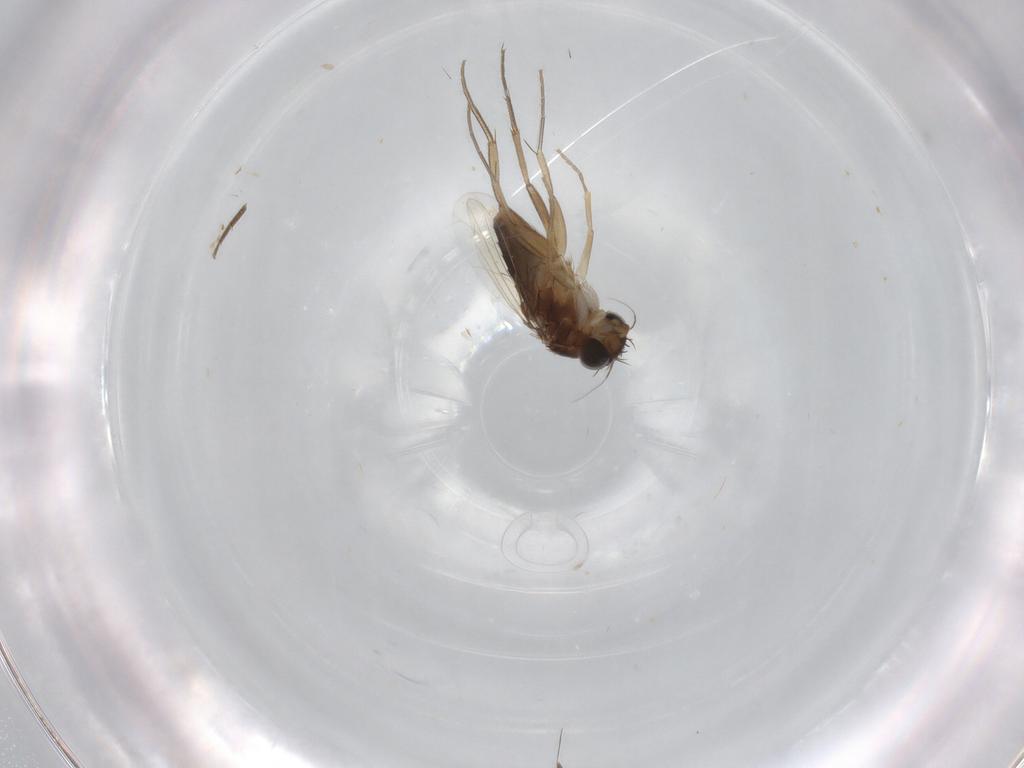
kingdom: Animalia
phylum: Arthropoda
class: Insecta
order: Diptera
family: Phoridae
